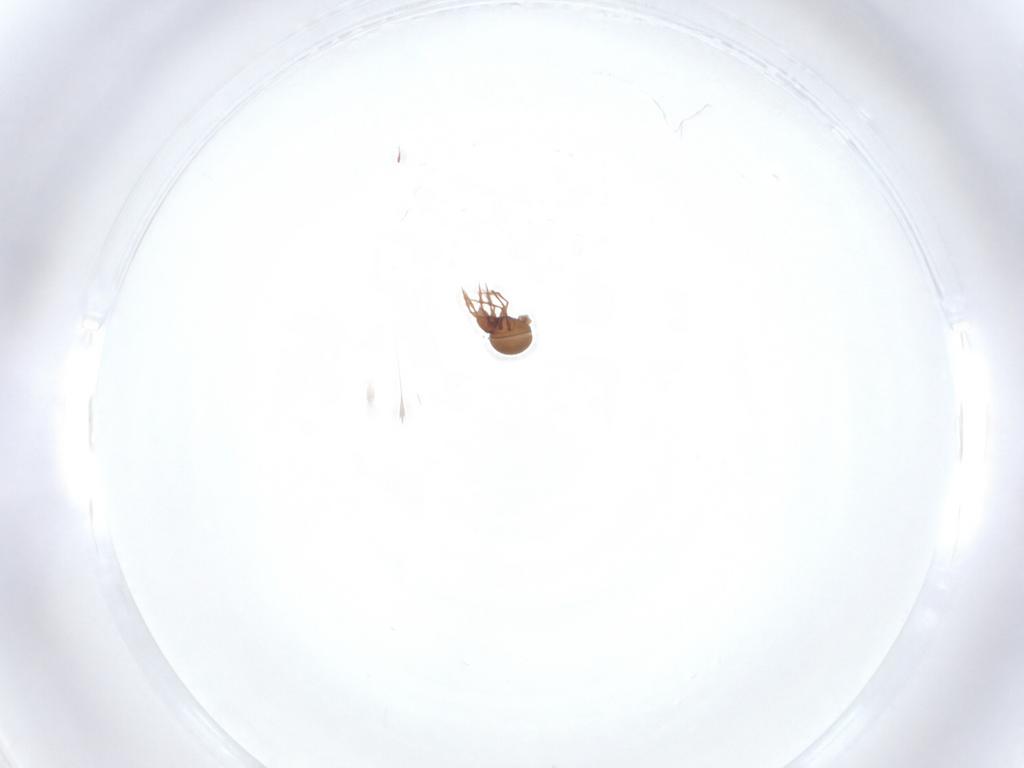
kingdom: Animalia
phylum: Arthropoda
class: Arachnida
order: Sarcoptiformes
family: Oppiidae
